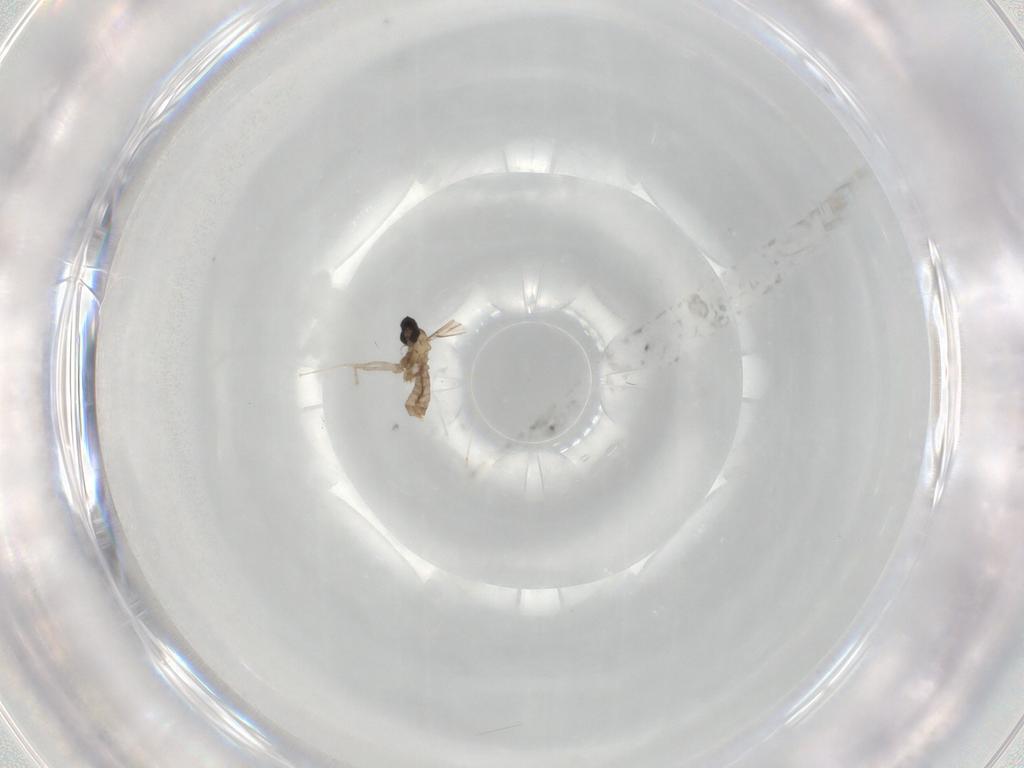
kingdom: Animalia
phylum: Arthropoda
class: Insecta
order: Diptera
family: Cecidomyiidae
